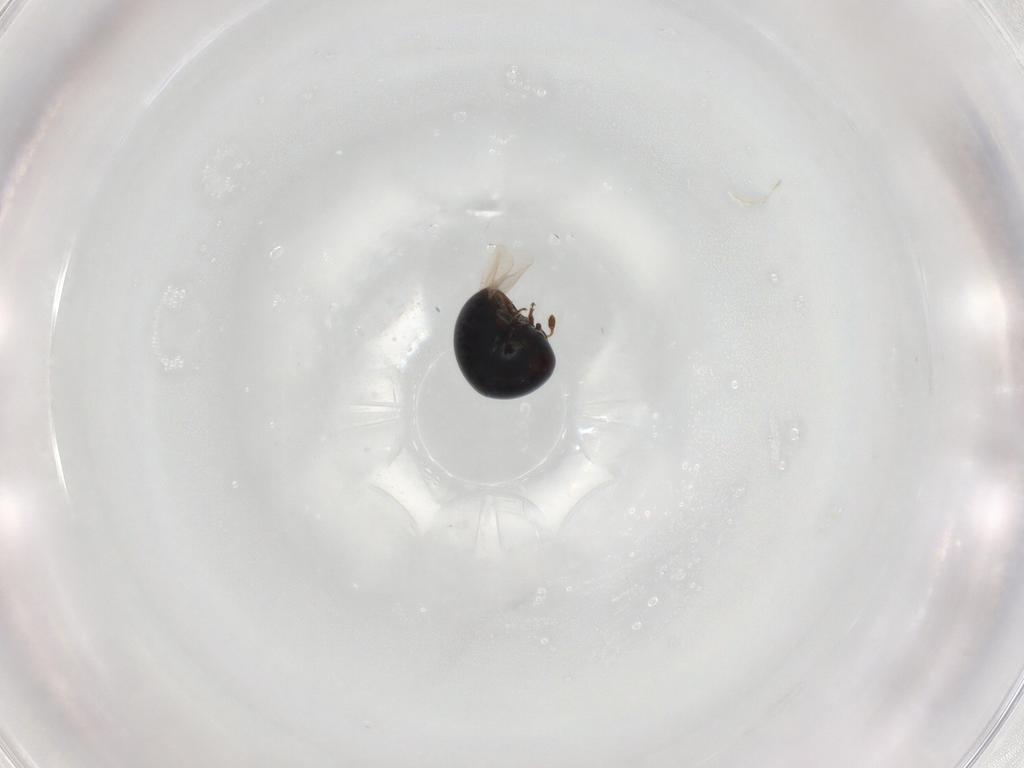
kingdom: Animalia
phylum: Arthropoda
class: Insecta
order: Coleoptera
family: Cybocephalidae
